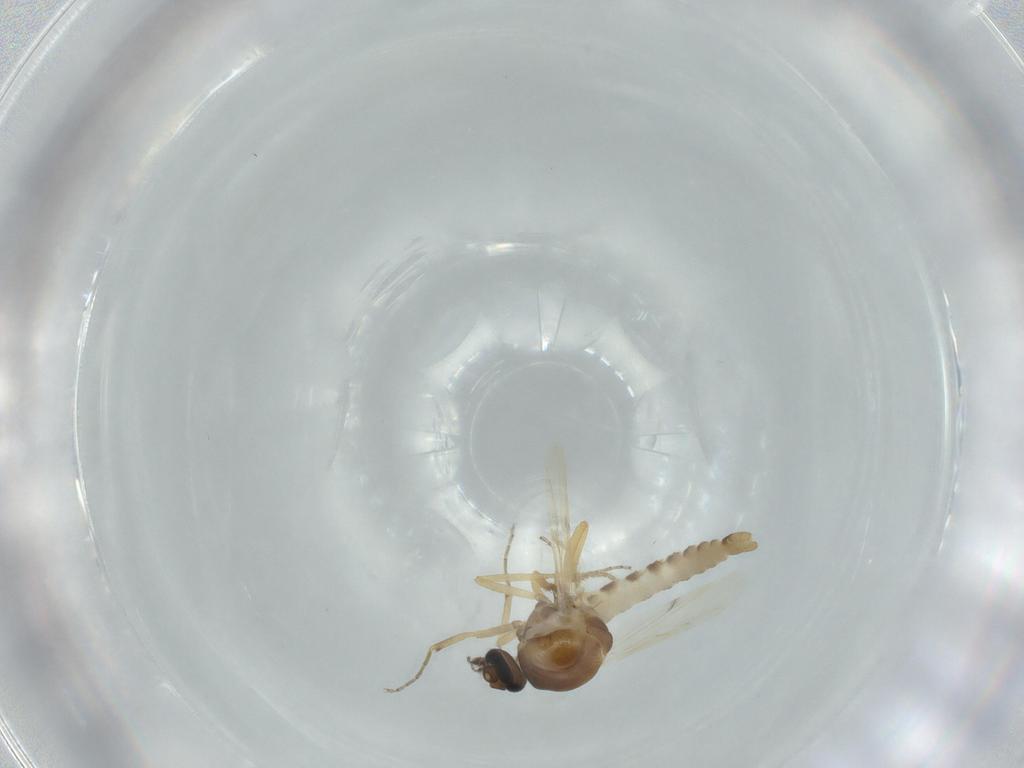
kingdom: Animalia
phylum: Arthropoda
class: Insecta
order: Diptera
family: Ceratopogonidae
